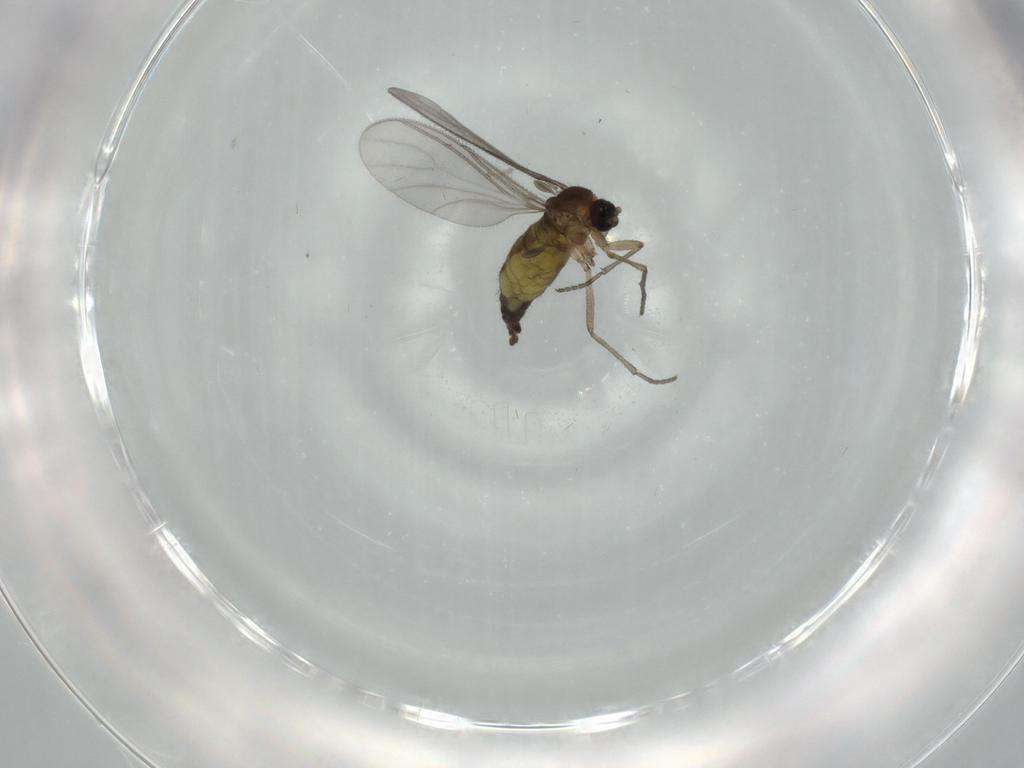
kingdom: Animalia
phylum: Arthropoda
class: Insecta
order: Diptera
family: Sciaridae
